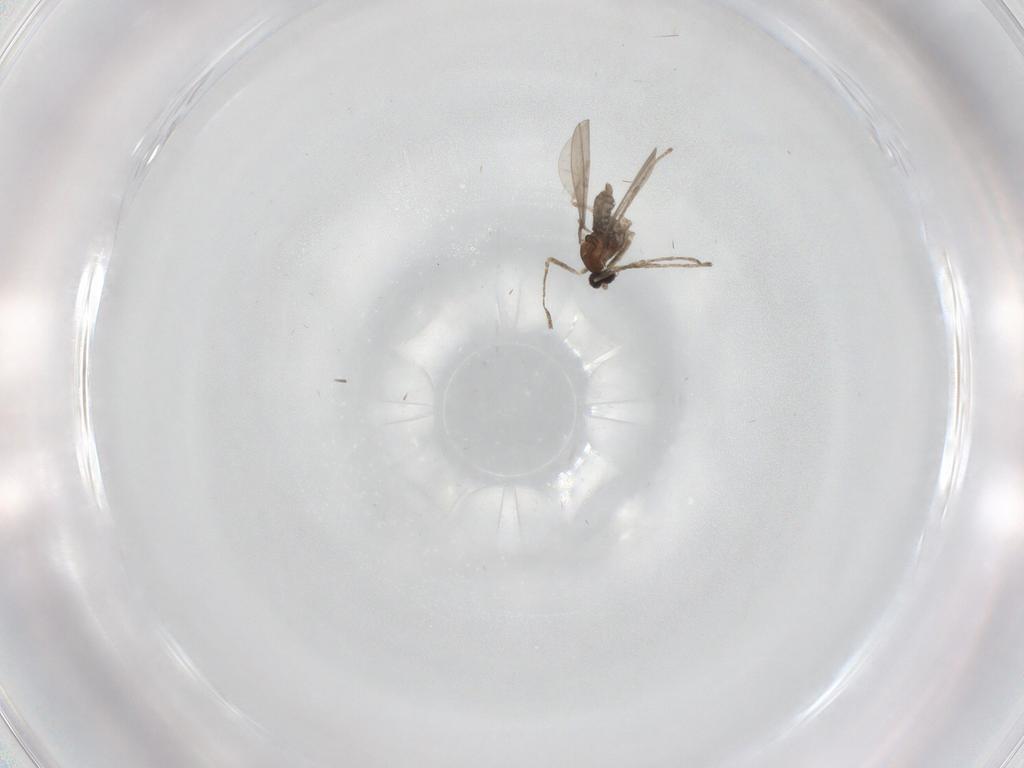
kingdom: Animalia
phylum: Arthropoda
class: Insecta
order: Diptera
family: Cecidomyiidae
